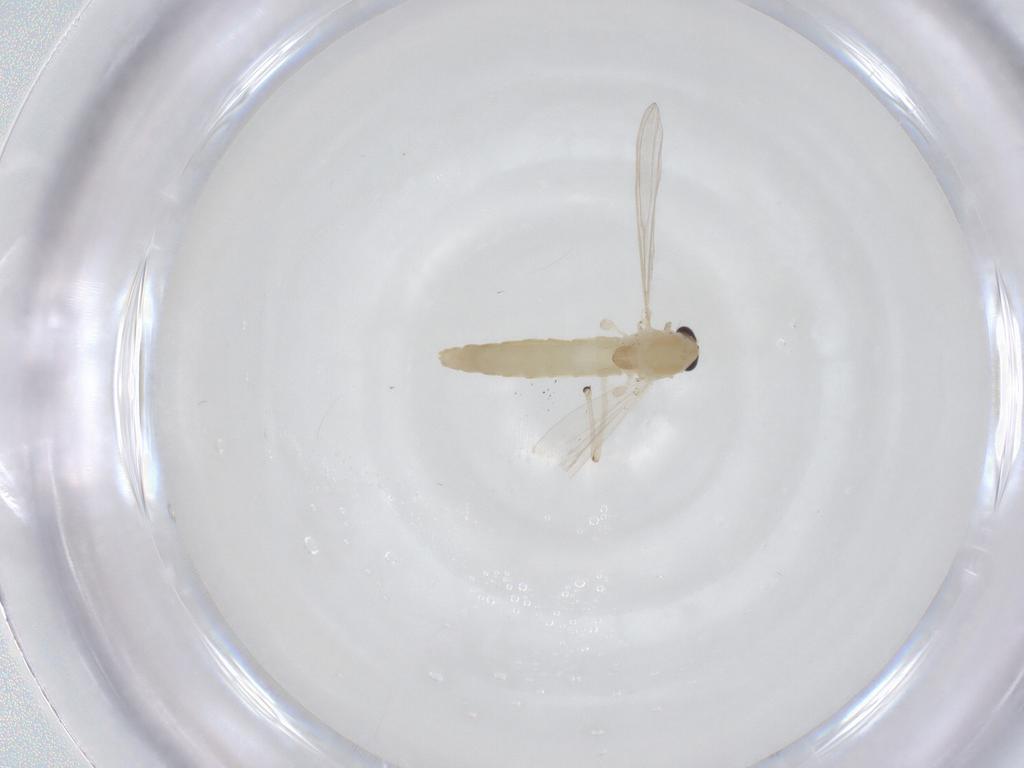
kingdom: Animalia
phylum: Arthropoda
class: Insecta
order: Diptera
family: Chironomidae
